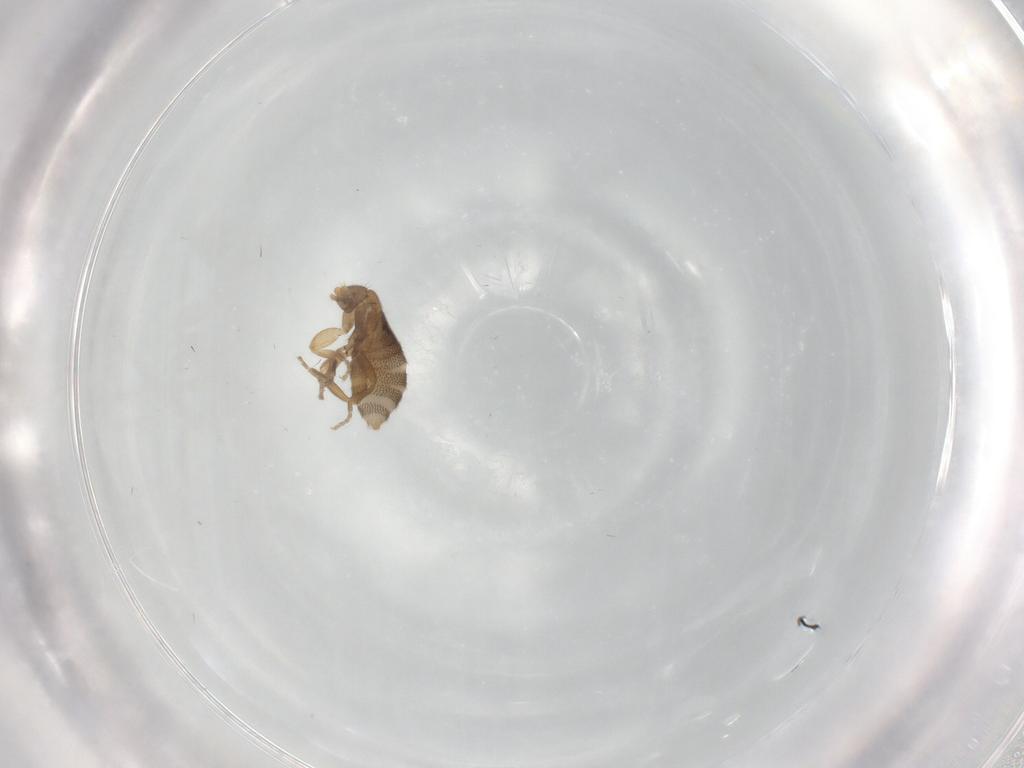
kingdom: Animalia
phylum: Arthropoda
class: Insecta
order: Diptera
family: Phoridae
